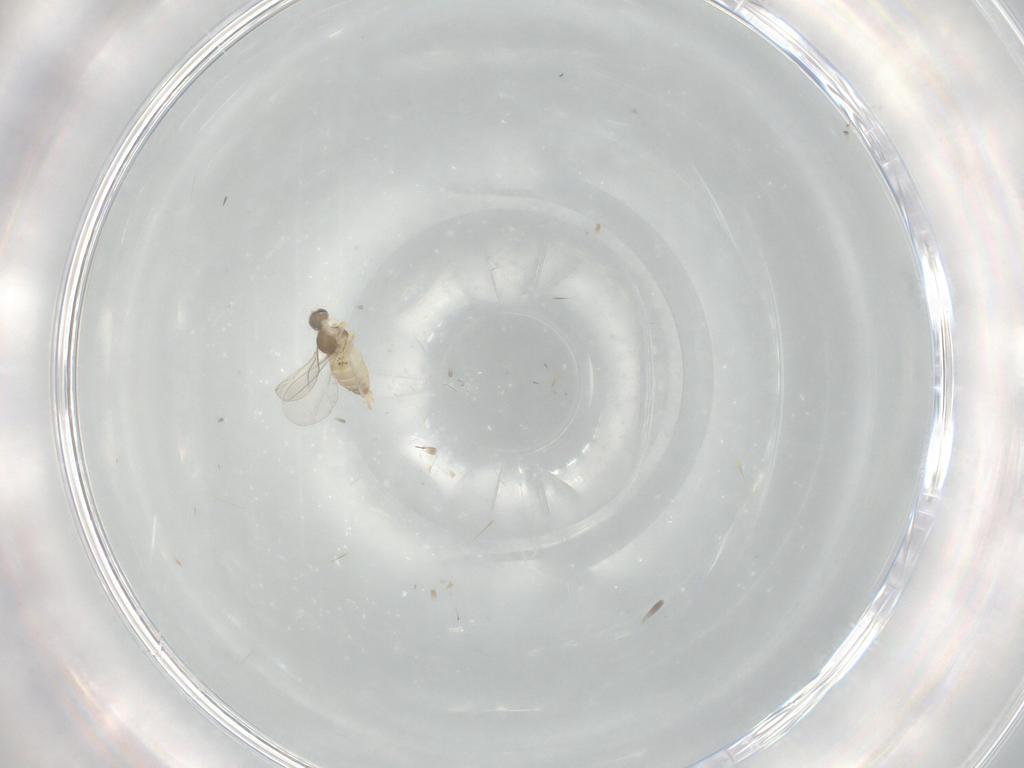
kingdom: Animalia
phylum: Arthropoda
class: Insecta
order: Diptera
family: Cecidomyiidae
